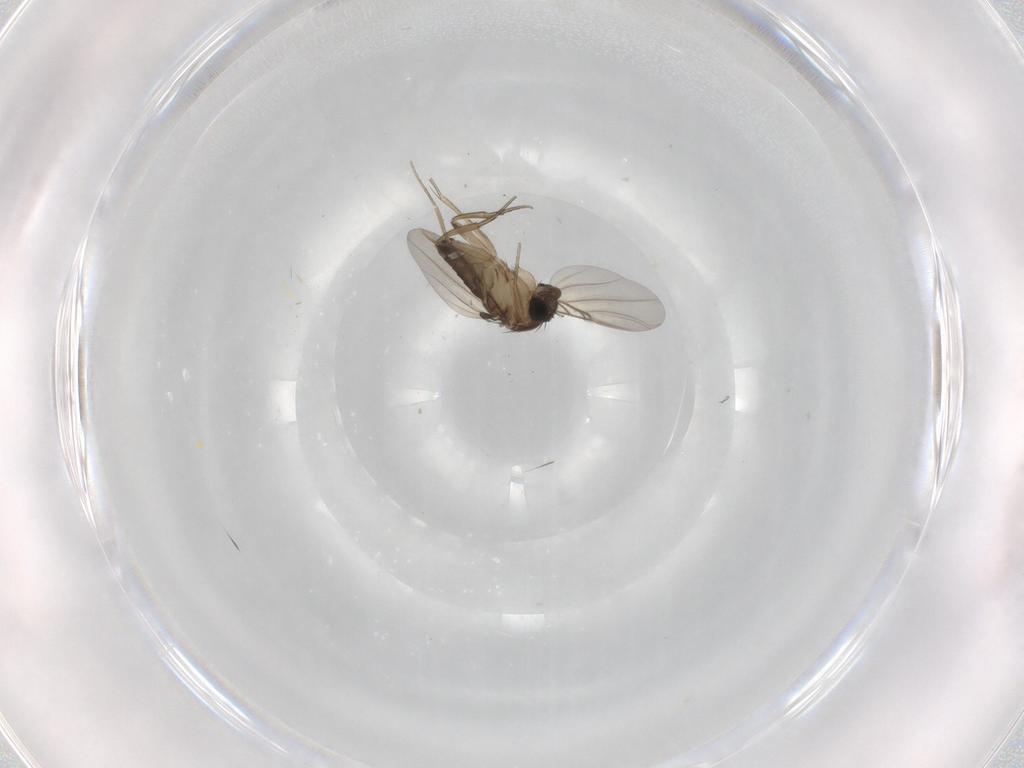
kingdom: Animalia
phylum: Arthropoda
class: Insecta
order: Diptera
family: Phoridae
